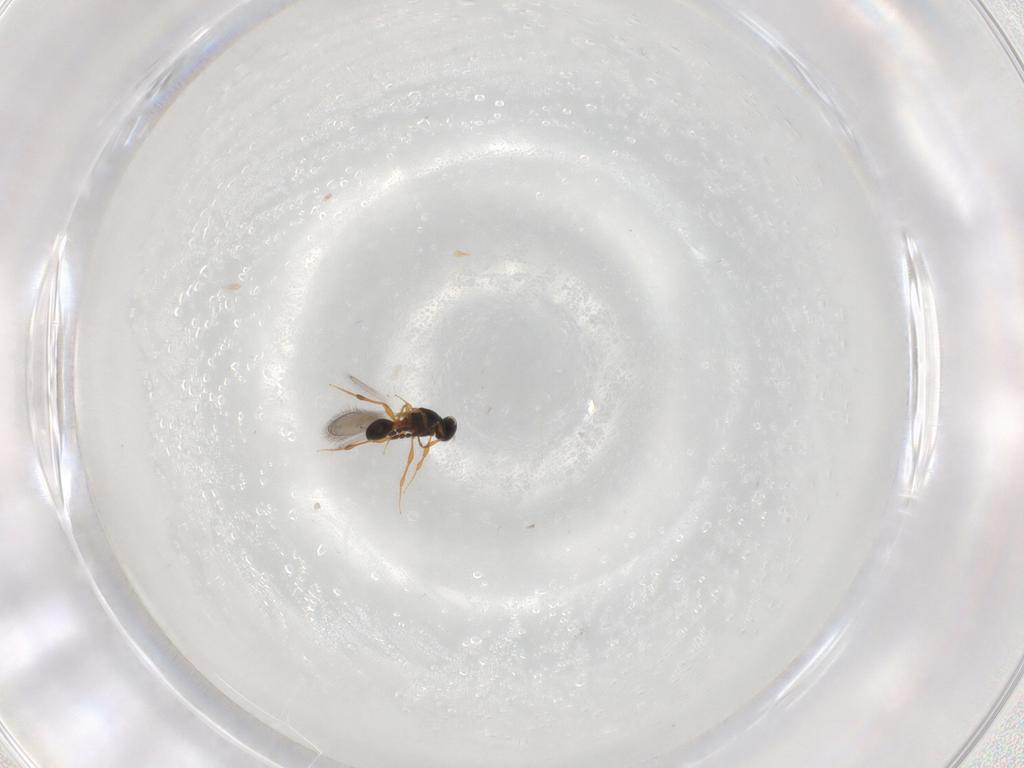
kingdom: Animalia
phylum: Arthropoda
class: Insecta
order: Hymenoptera
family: Platygastridae
